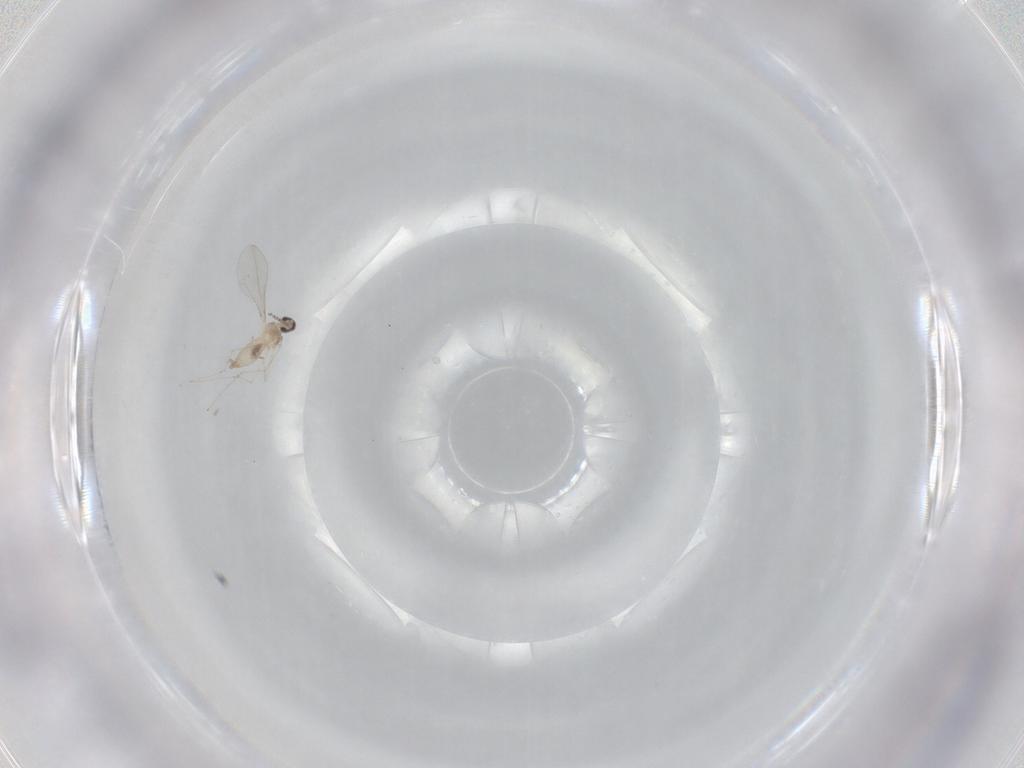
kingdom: Animalia
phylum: Arthropoda
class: Insecta
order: Diptera
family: Cecidomyiidae
